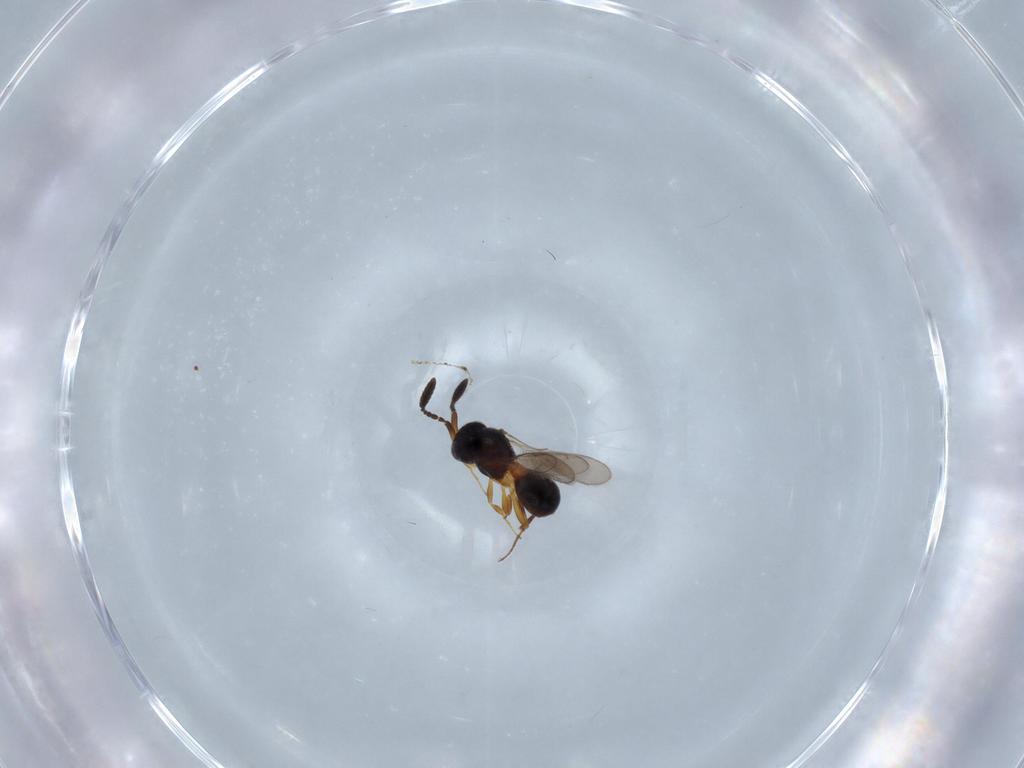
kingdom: Animalia
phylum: Arthropoda
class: Insecta
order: Hymenoptera
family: Scelionidae
